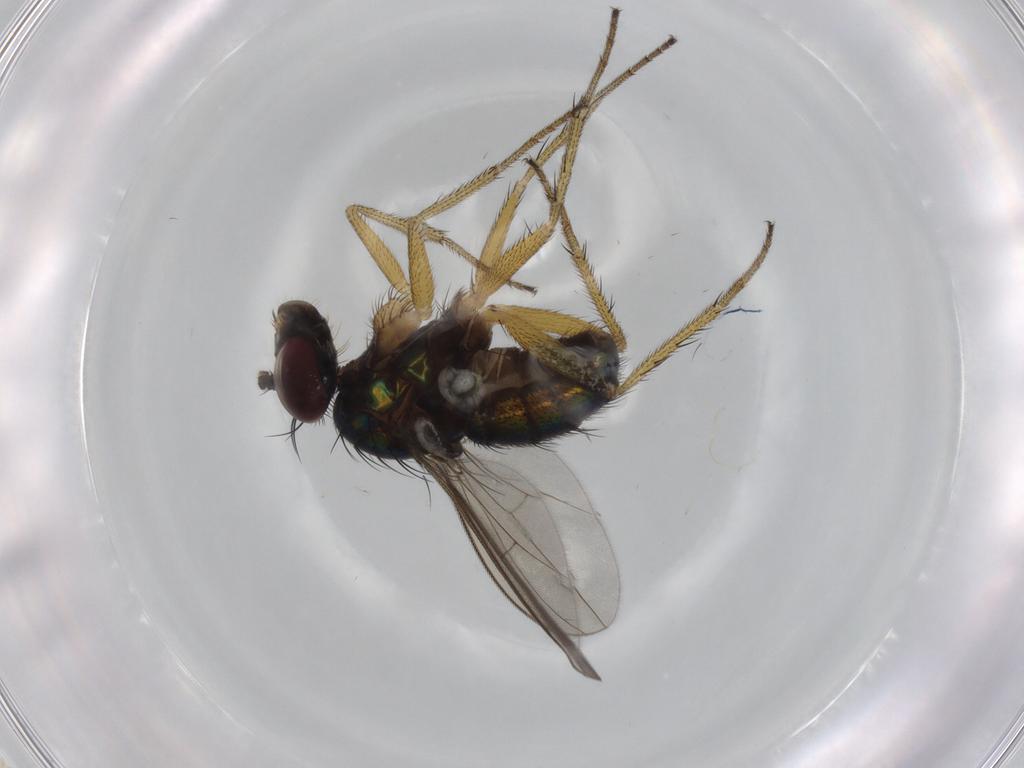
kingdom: Animalia
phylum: Arthropoda
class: Insecta
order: Diptera
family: Dolichopodidae
